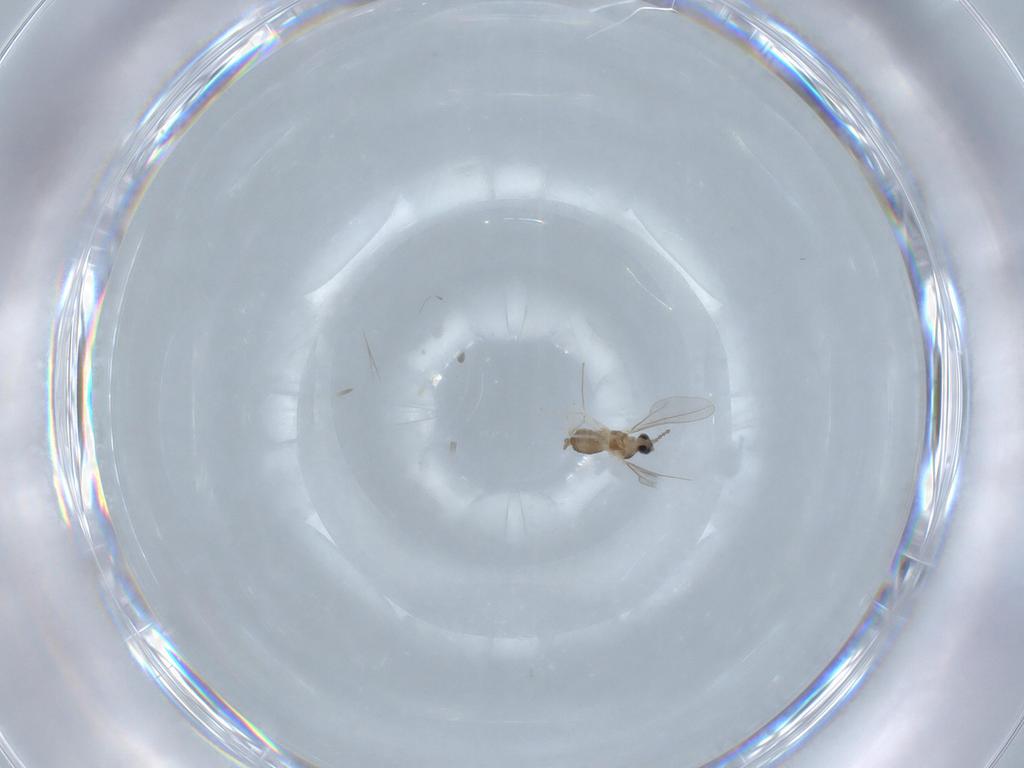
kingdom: Animalia
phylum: Arthropoda
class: Insecta
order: Diptera
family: Cecidomyiidae
